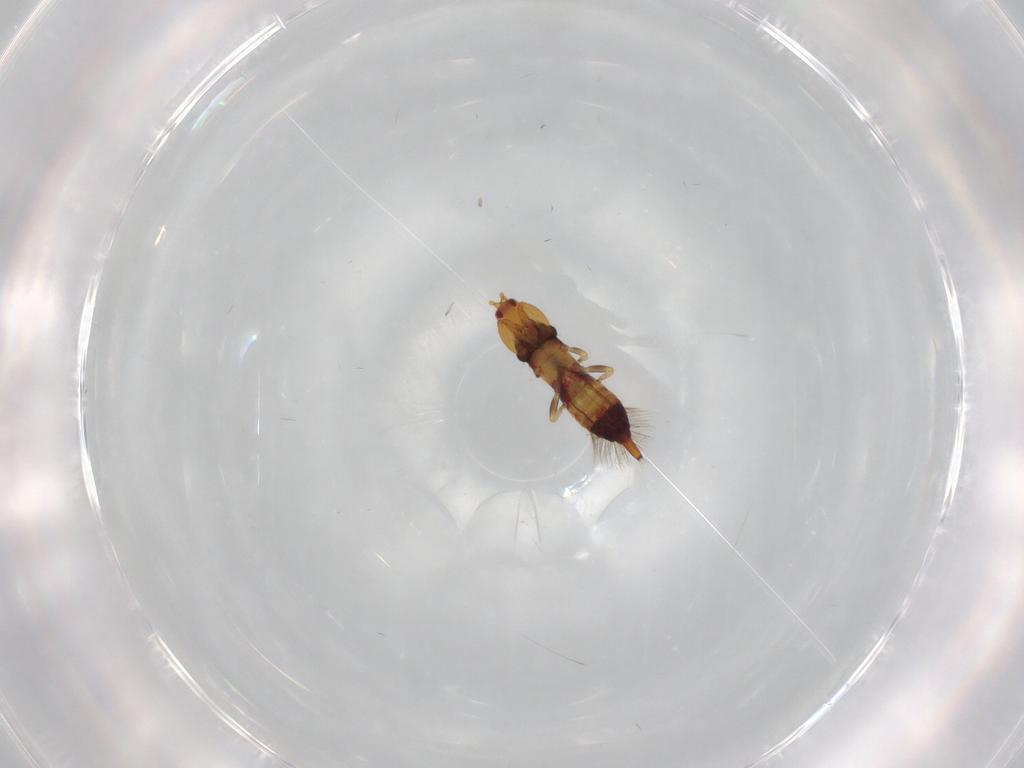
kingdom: Animalia
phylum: Arthropoda
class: Insecta
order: Thysanoptera
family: Phlaeothripidae
